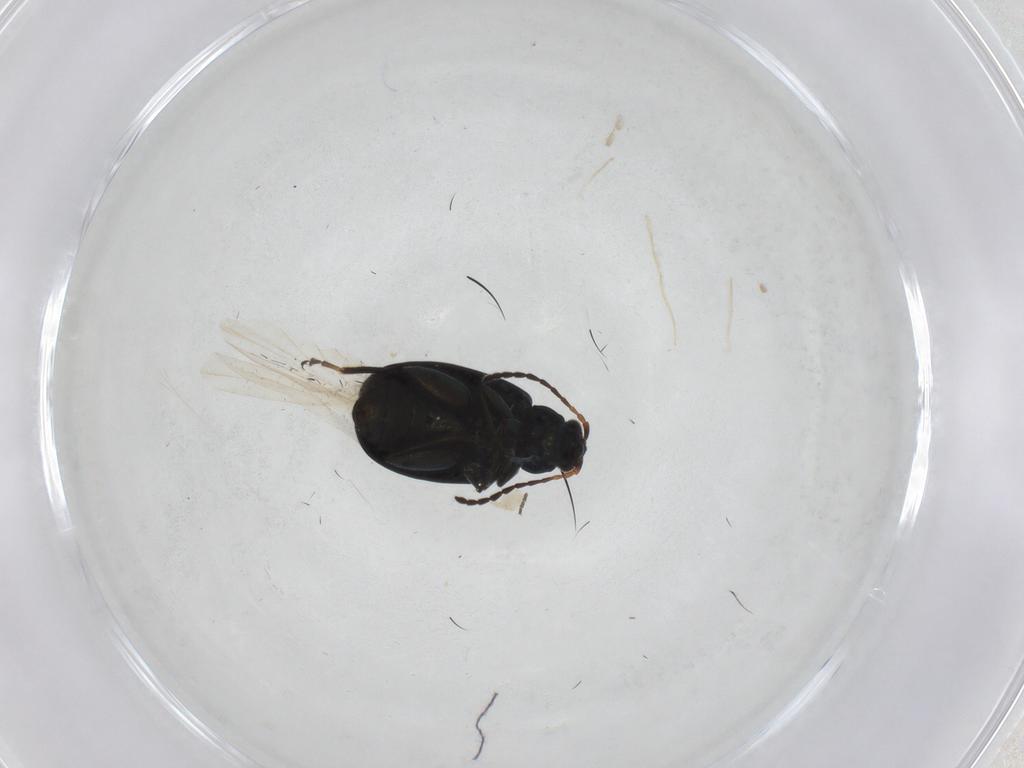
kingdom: Animalia
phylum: Arthropoda
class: Insecta
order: Coleoptera
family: Chrysomelidae
